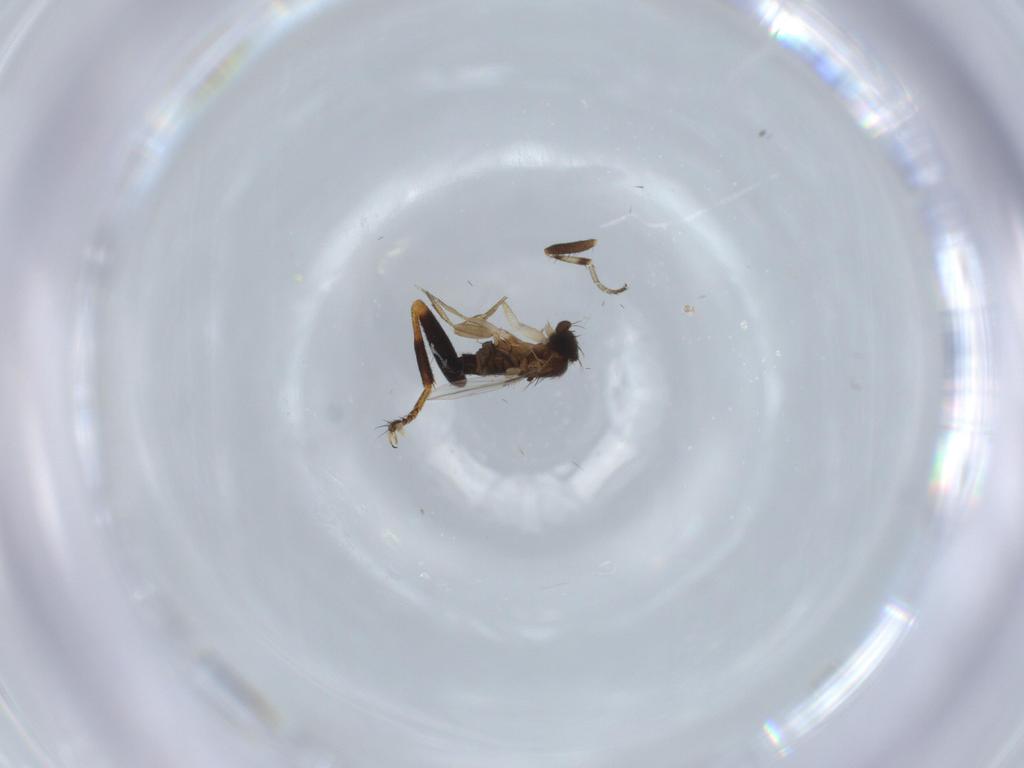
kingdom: Animalia
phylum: Arthropoda
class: Insecta
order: Diptera
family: Pipunculidae
